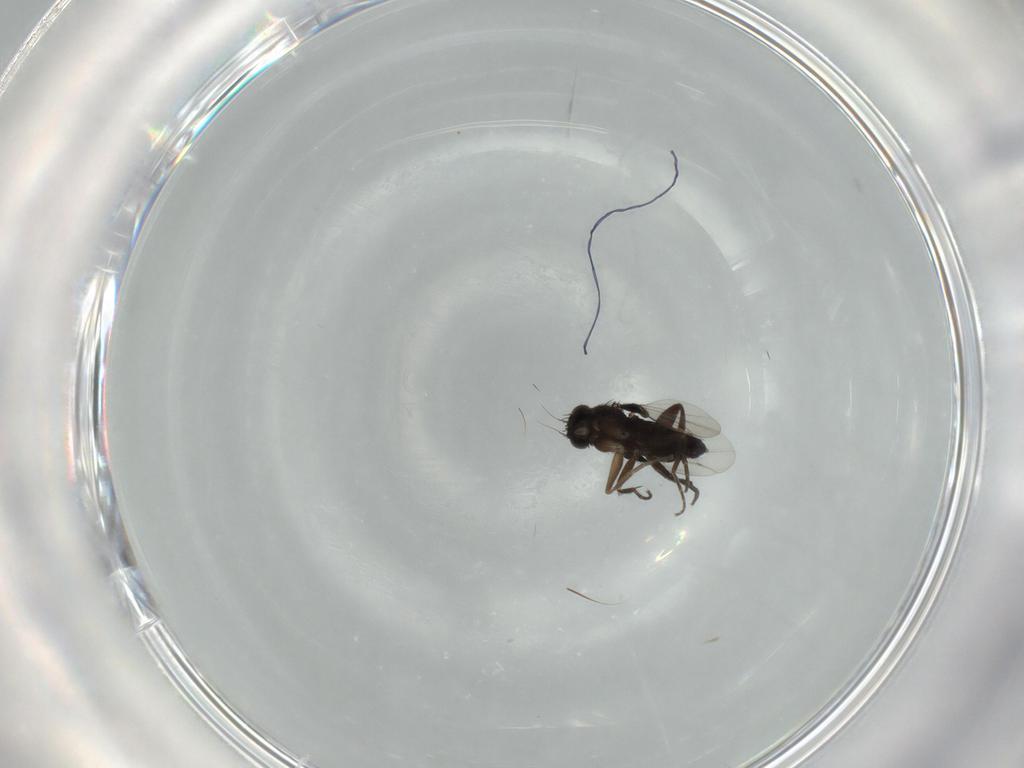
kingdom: Animalia
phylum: Arthropoda
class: Insecta
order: Diptera
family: Phoridae
